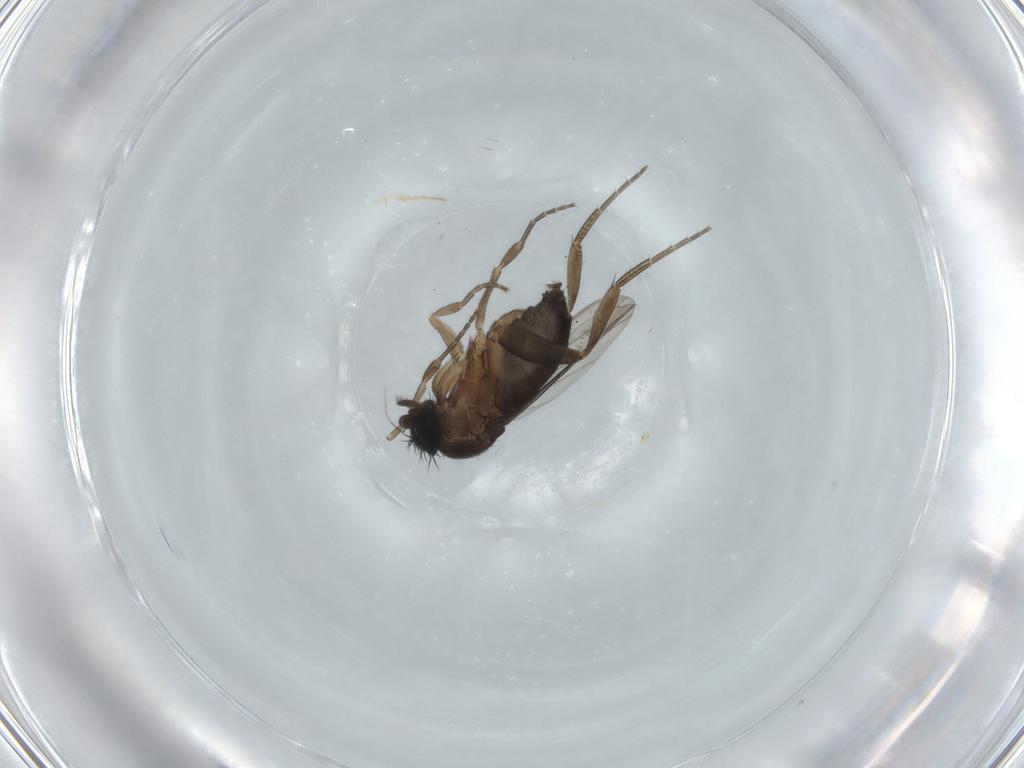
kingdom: Animalia
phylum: Arthropoda
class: Insecta
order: Diptera
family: Phoridae
